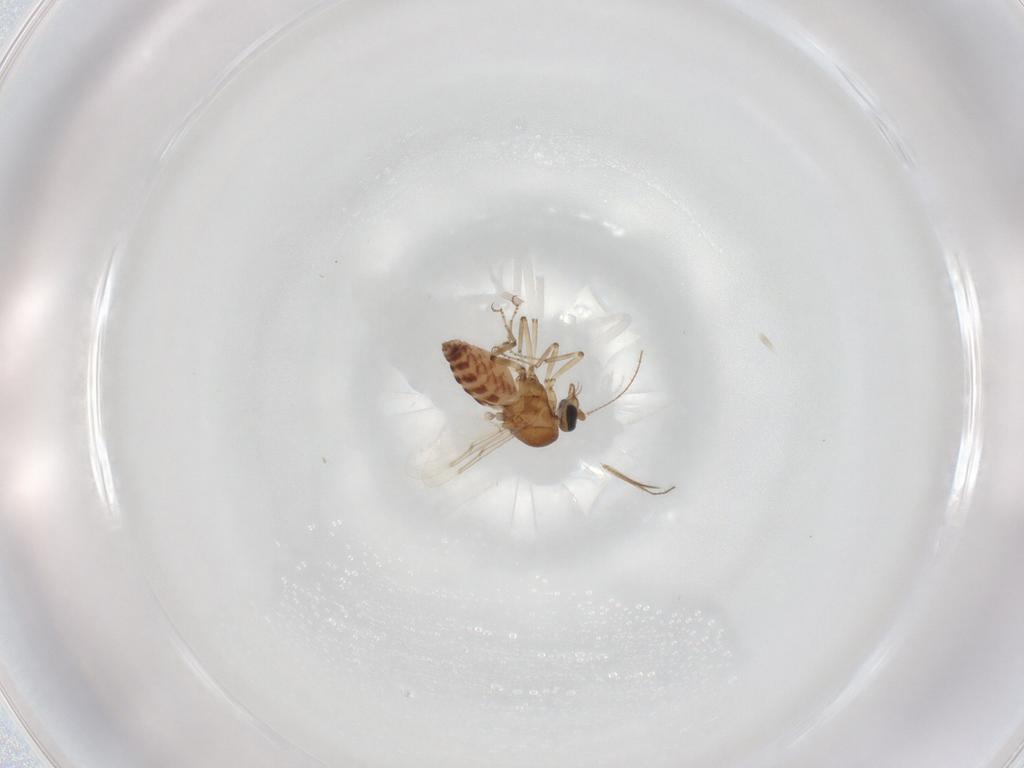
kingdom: Animalia
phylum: Arthropoda
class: Insecta
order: Diptera
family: Ceratopogonidae
